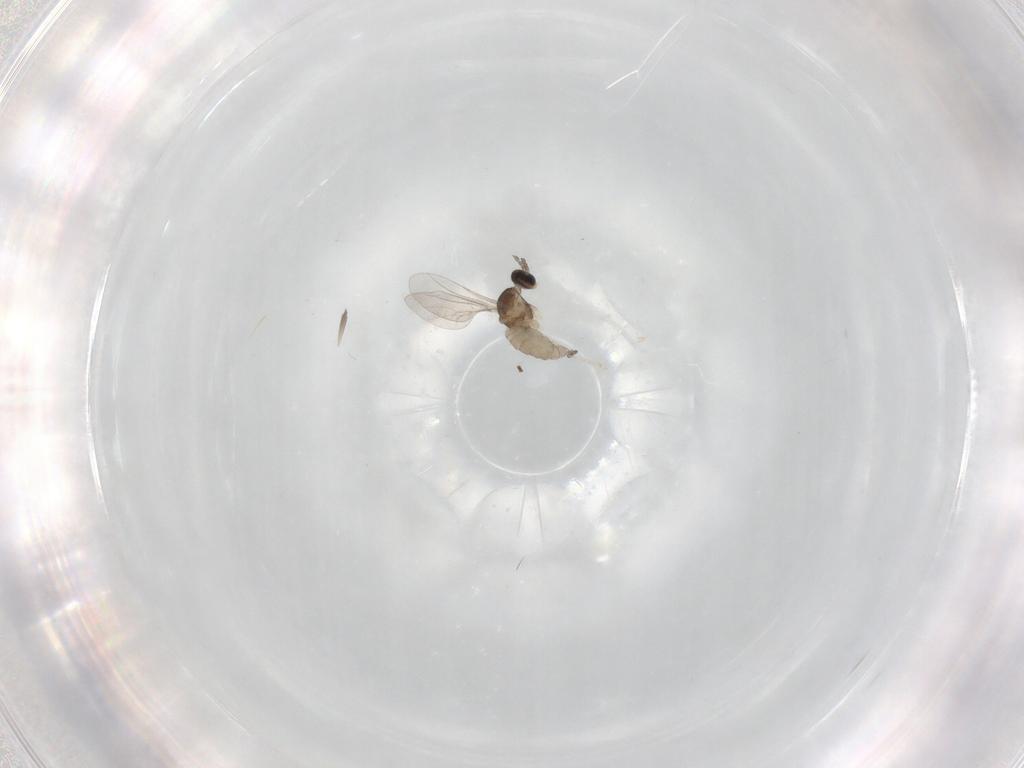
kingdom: Animalia
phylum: Arthropoda
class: Insecta
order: Diptera
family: Cecidomyiidae
